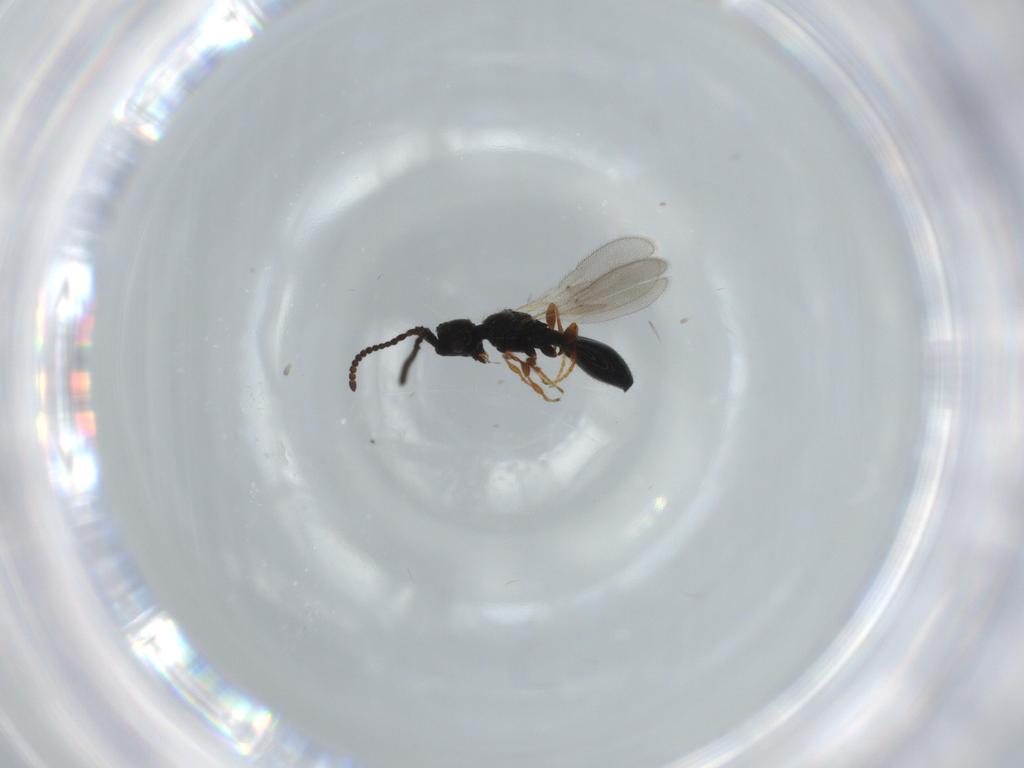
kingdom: Animalia
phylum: Arthropoda
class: Insecta
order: Hymenoptera
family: Diapriidae
